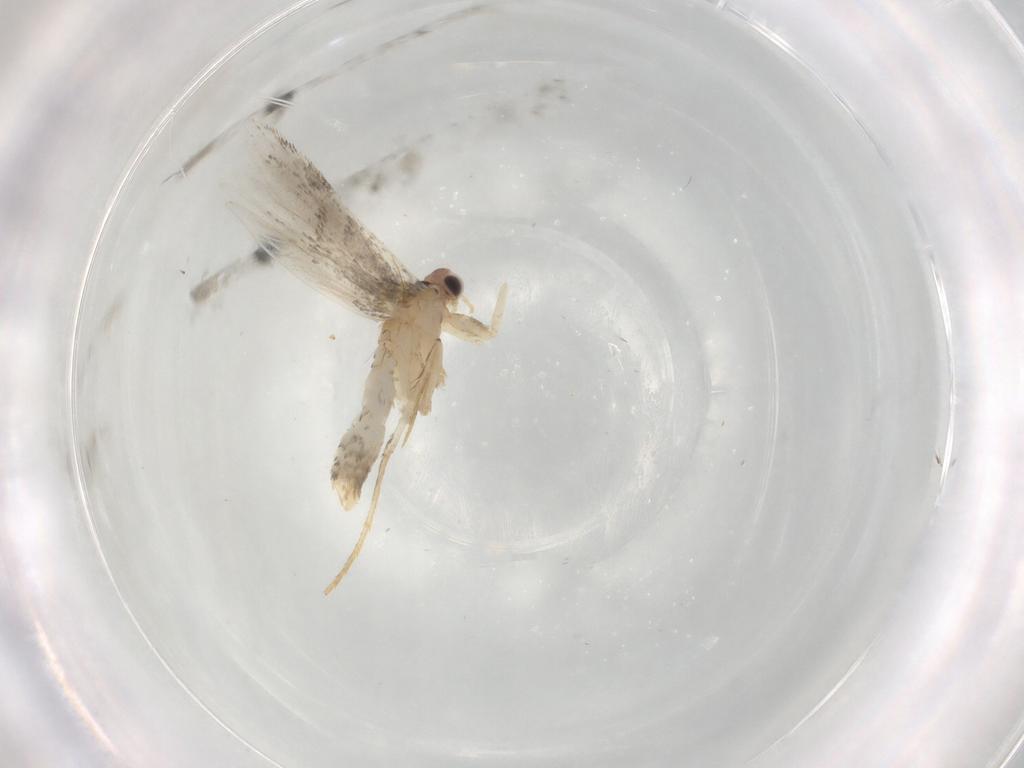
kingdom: Animalia
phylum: Arthropoda
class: Insecta
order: Lepidoptera
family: Tineidae
